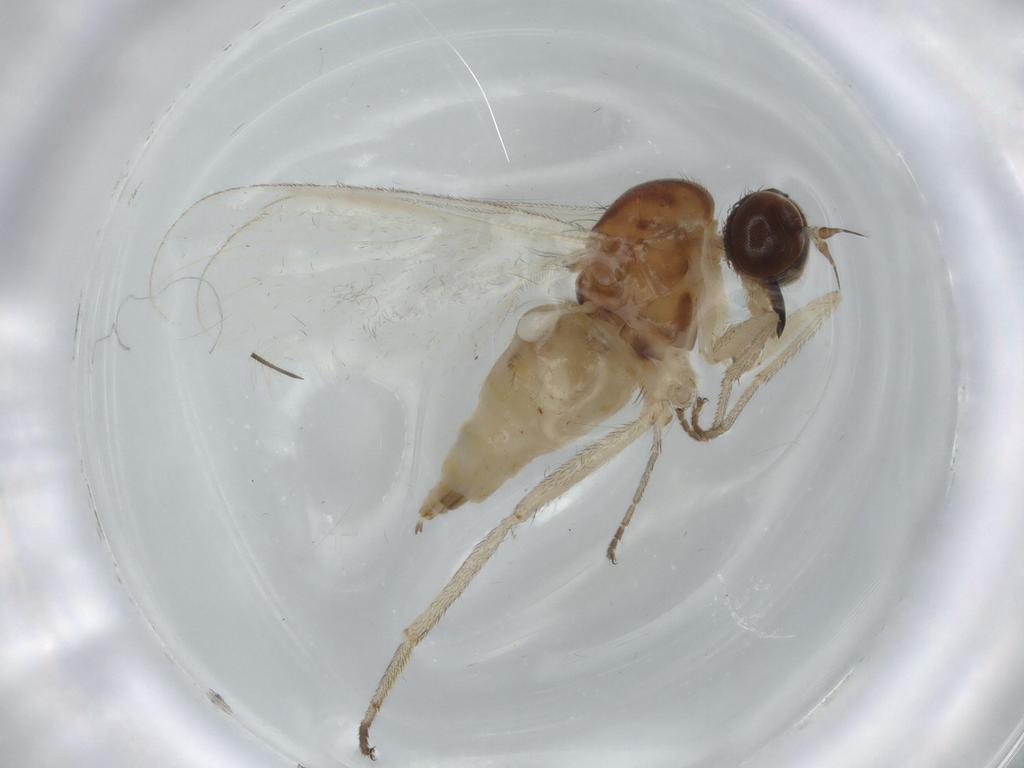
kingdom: Animalia
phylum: Arthropoda
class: Insecta
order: Diptera
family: Empididae
